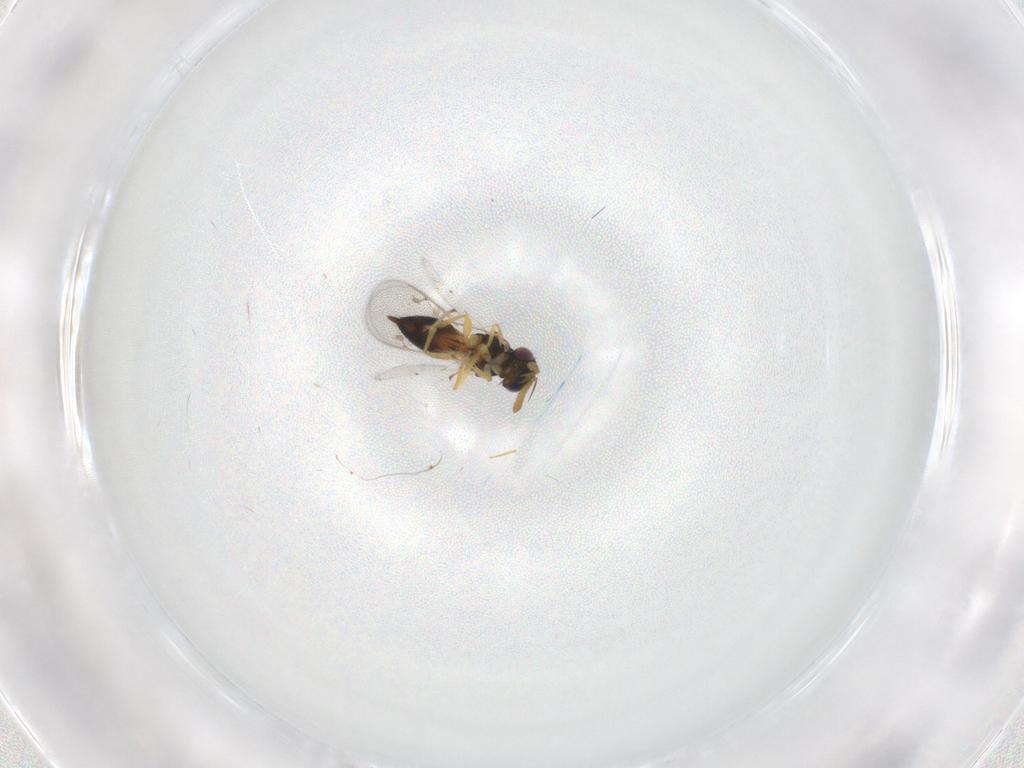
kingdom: Animalia
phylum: Arthropoda
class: Insecta
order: Hymenoptera
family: Pirenidae
